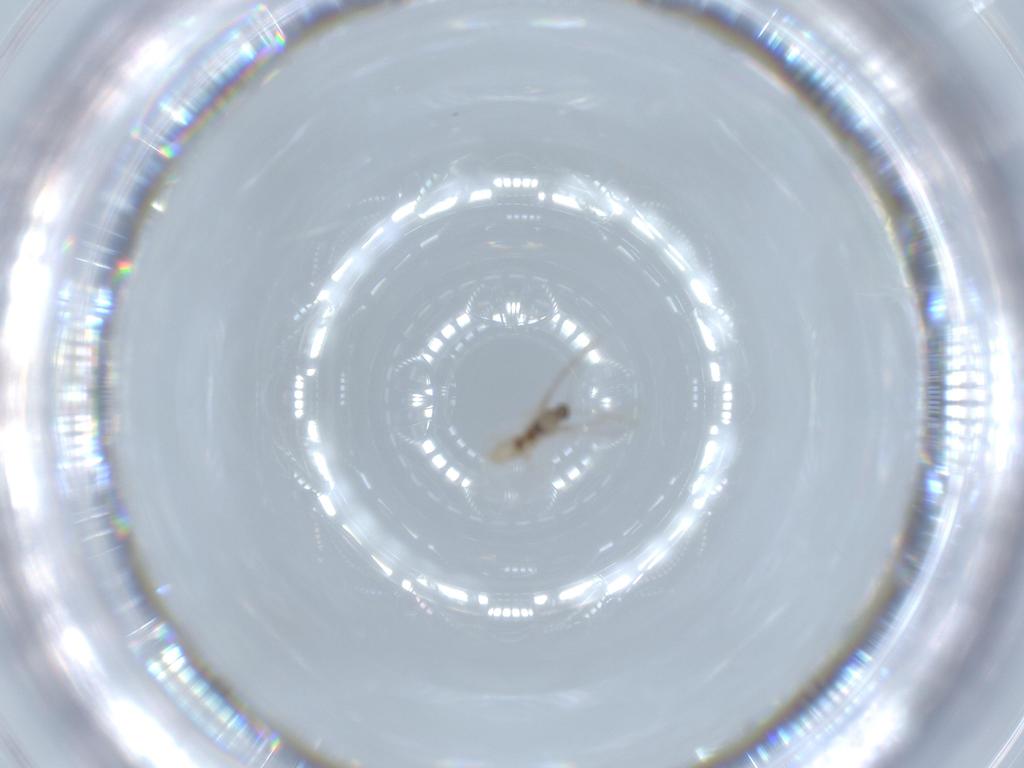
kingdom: Animalia
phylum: Arthropoda
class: Insecta
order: Diptera
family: Cecidomyiidae
